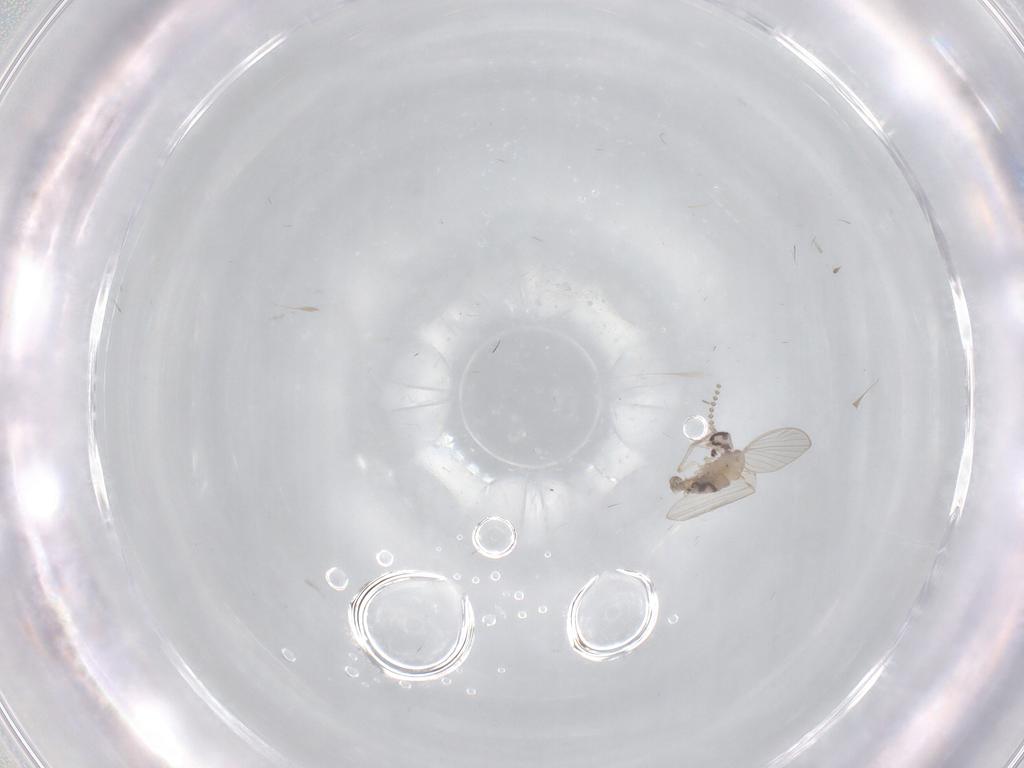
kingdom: Animalia
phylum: Arthropoda
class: Insecta
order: Diptera
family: Psychodidae
